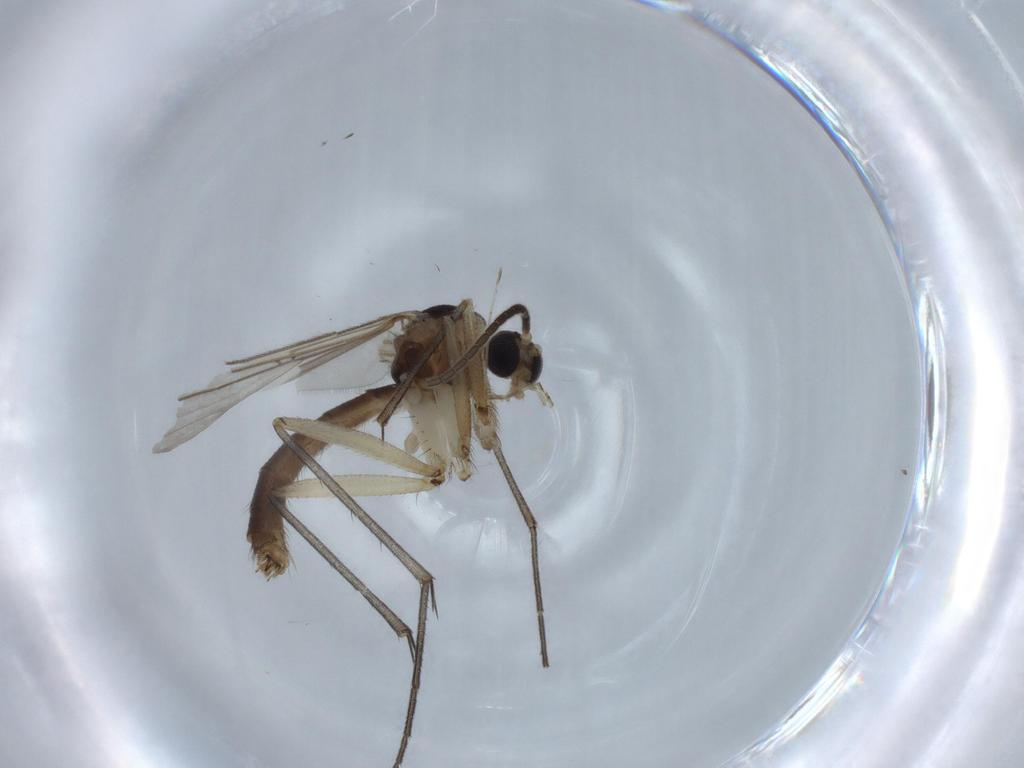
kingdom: Animalia
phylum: Arthropoda
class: Insecta
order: Diptera
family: Mycetophilidae
